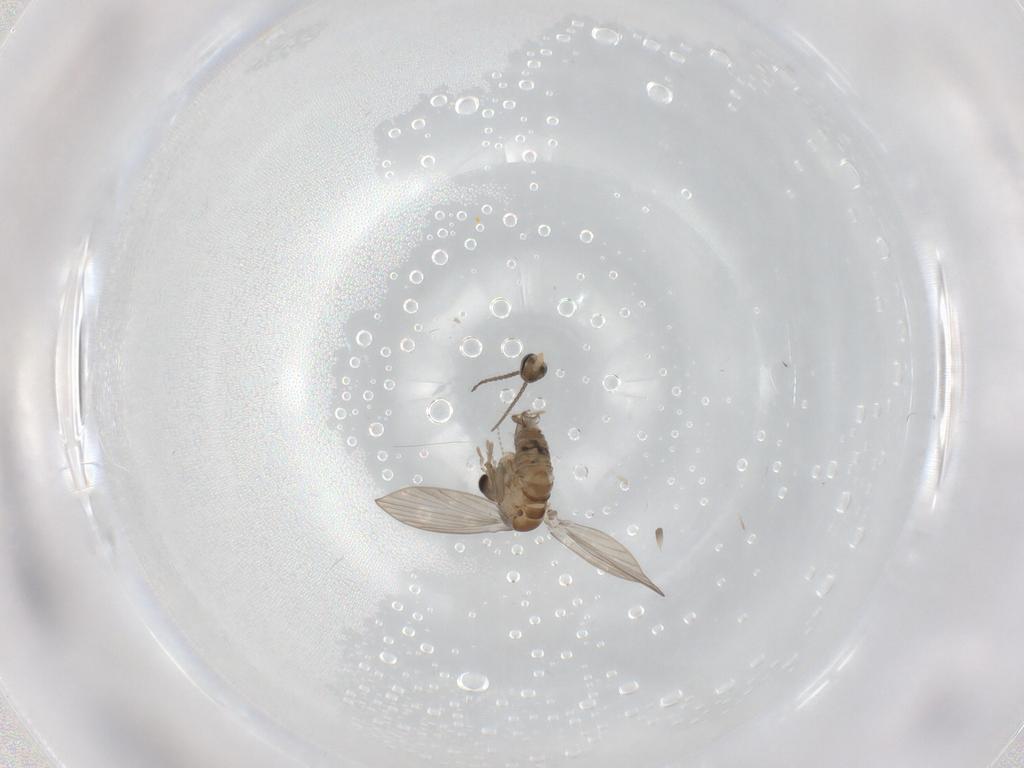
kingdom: Animalia
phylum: Arthropoda
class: Insecta
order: Diptera
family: Psychodidae
